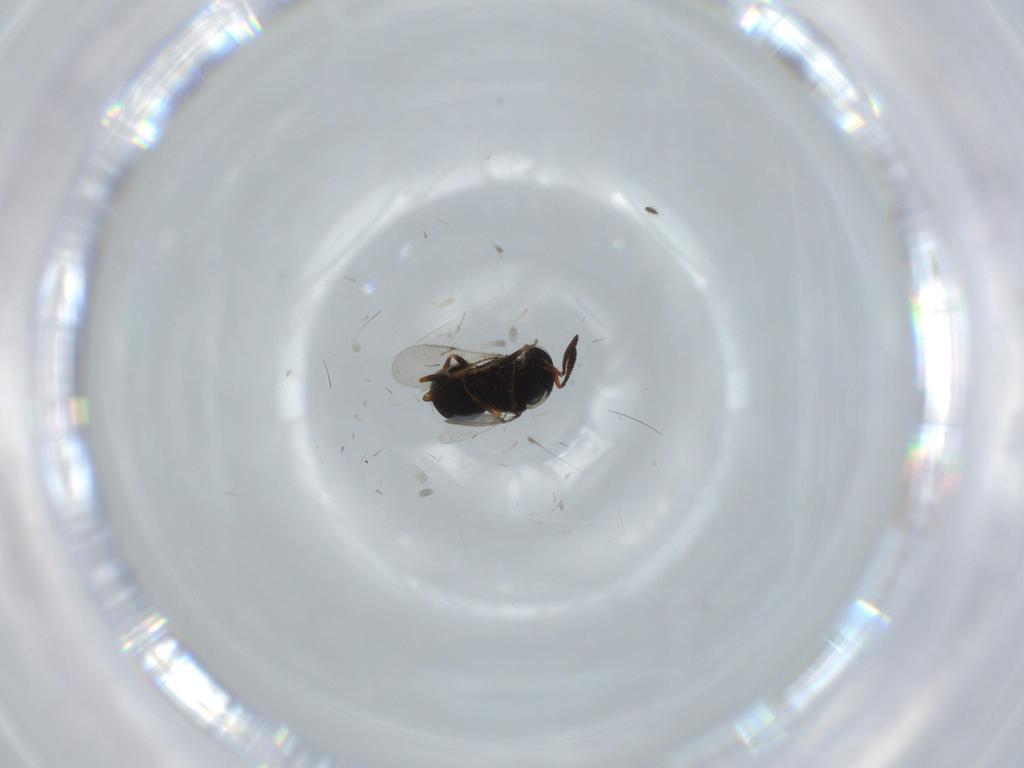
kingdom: Animalia
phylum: Arthropoda
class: Insecta
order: Hymenoptera
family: Scelionidae
